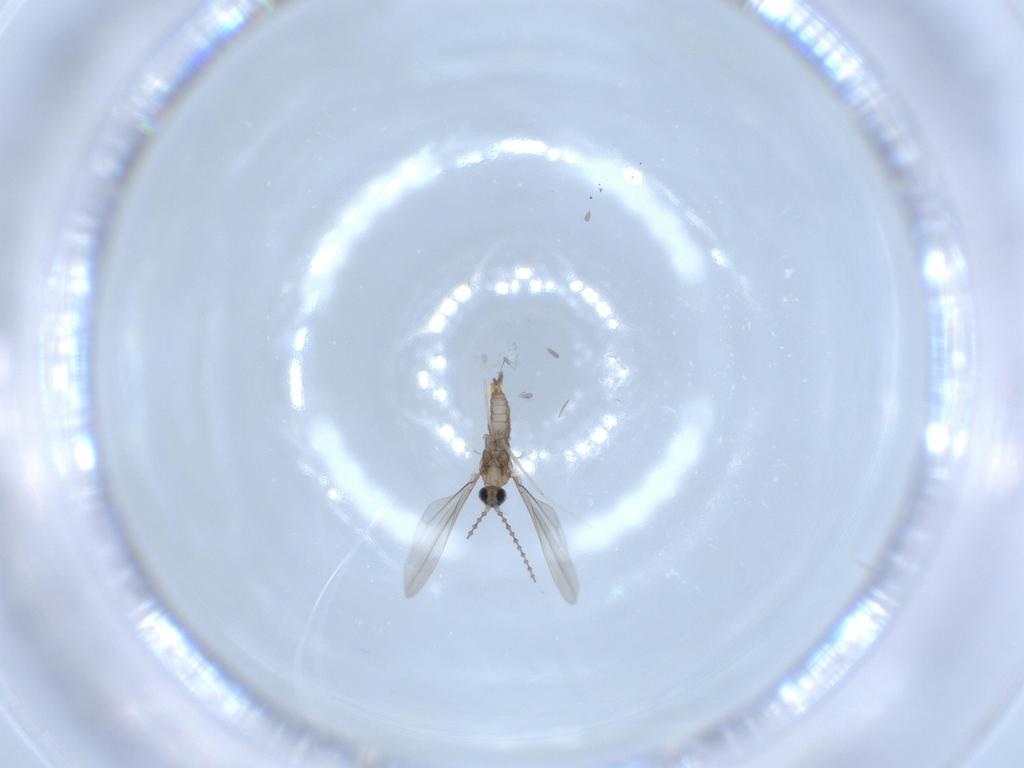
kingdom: Animalia
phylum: Arthropoda
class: Insecta
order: Diptera
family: Cecidomyiidae
